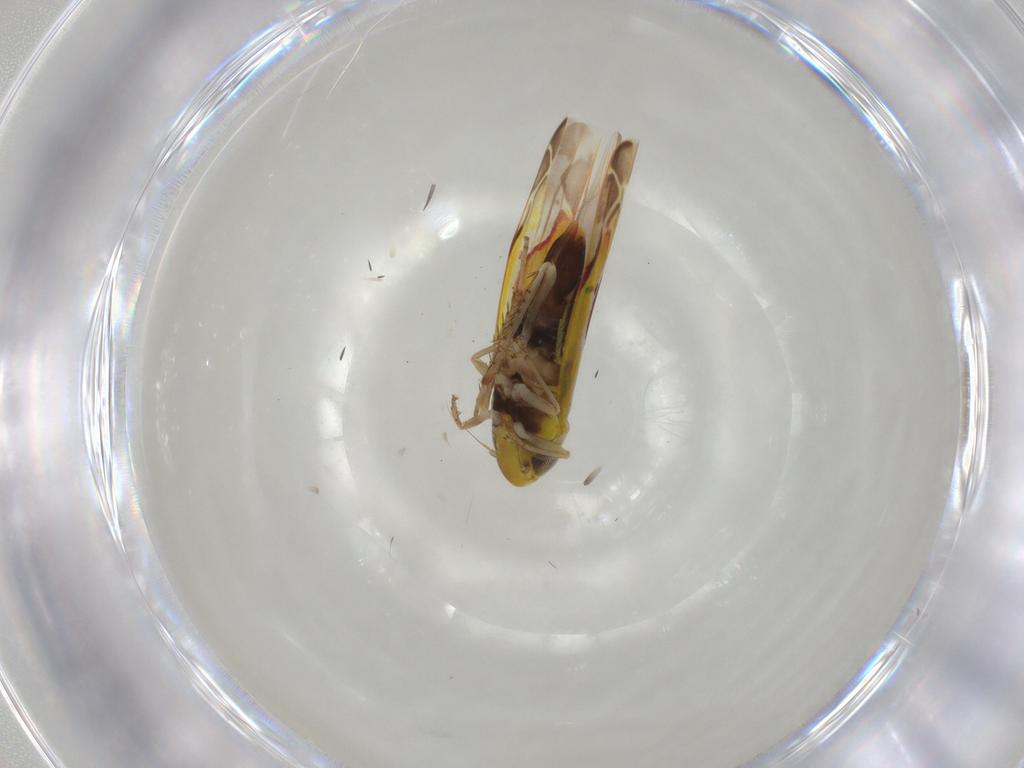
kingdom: Animalia
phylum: Arthropoda
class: Insecta
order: Hemiptera
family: Cicadellidae
